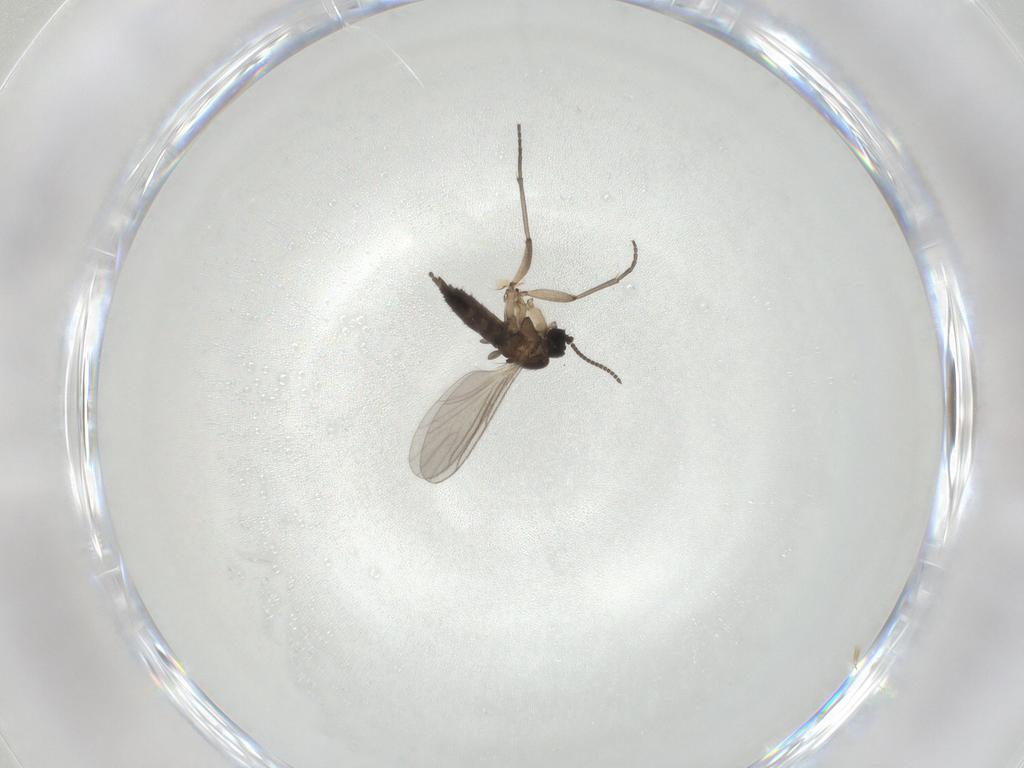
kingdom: Animalia
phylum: Arthropoda
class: Insecta
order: Diptera
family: Sciaridae
